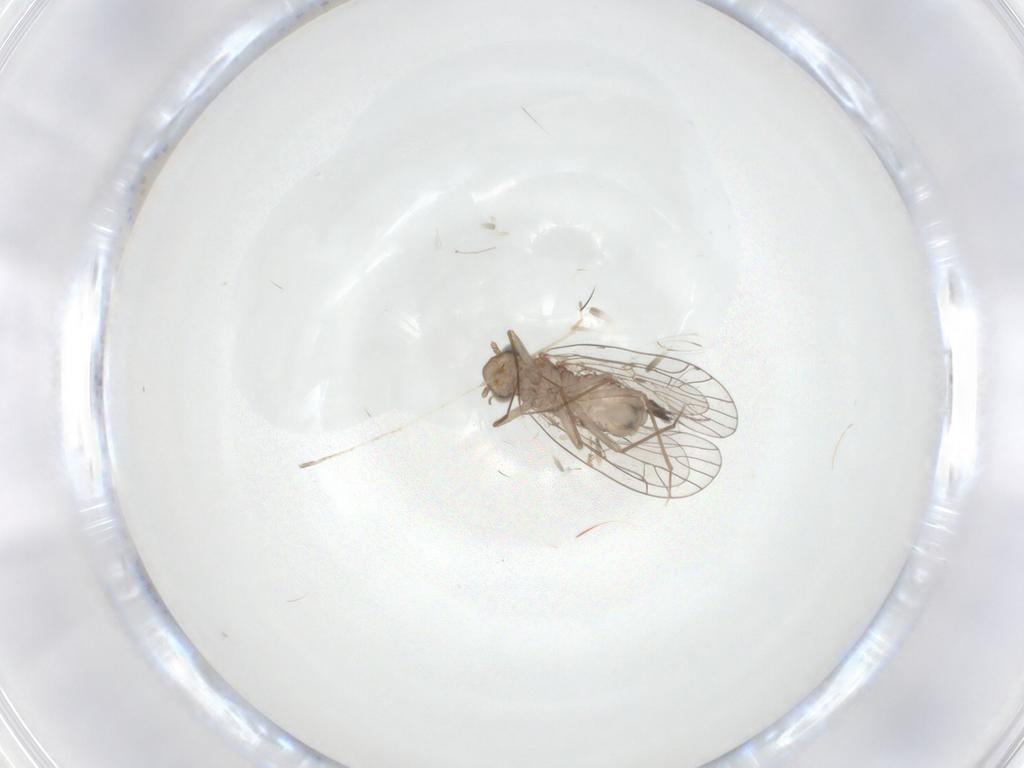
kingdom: Animalia
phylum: Arthropoda
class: Insecta
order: Psocodea
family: Amphientomidae
